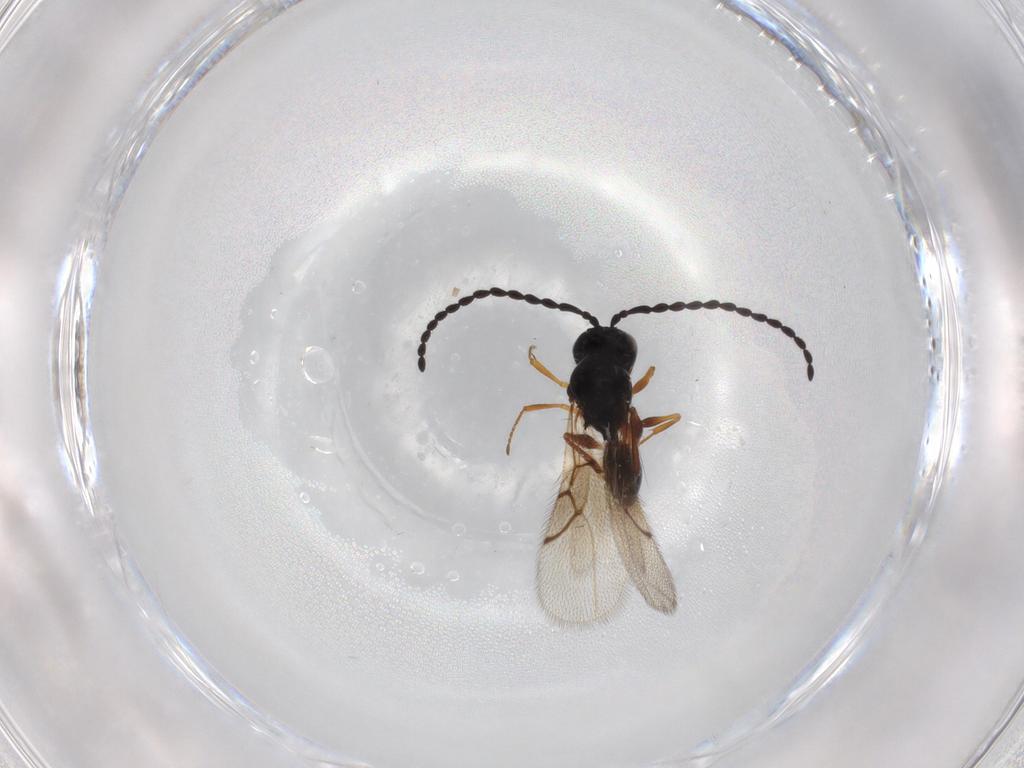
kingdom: Animalia
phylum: Arthropoda
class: Insecta
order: Hymenoptera
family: Figitidae
